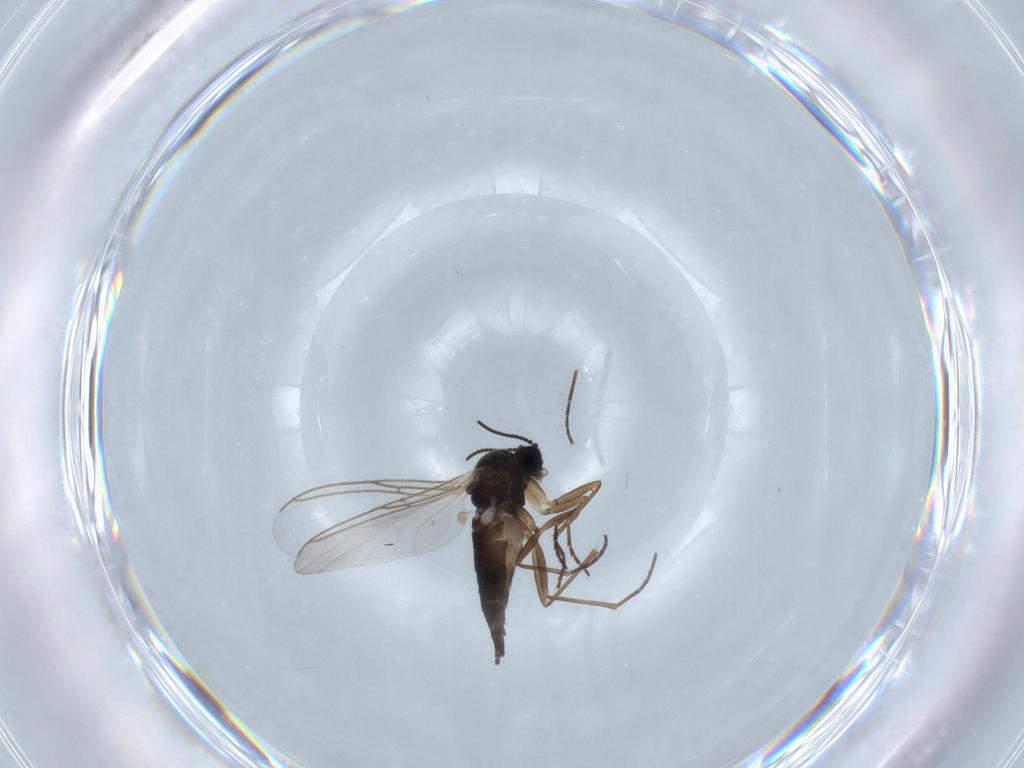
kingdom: Animalia
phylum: Arthropoda
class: Insecta
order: Diptera
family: Sciaridae
